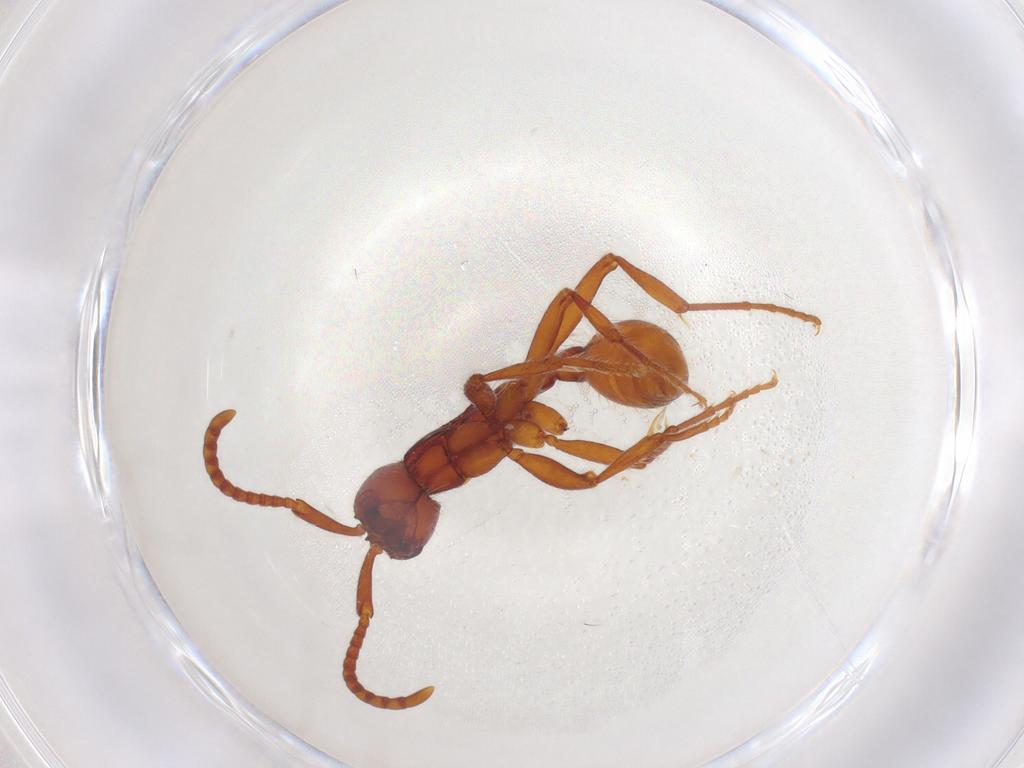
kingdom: Animalia
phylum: Arthropoda
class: Insecta
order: Hymenoptera
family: Formicidae
